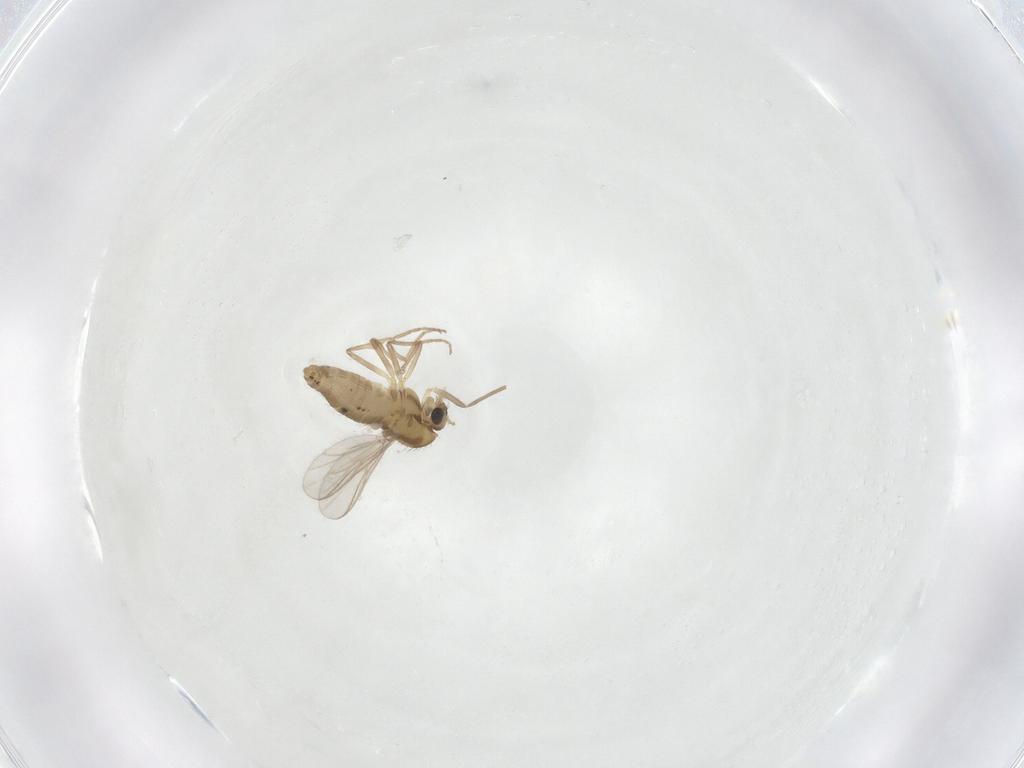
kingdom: Animalia
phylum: Arthropoda
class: Insecta
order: Diptera
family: Chironomidae
